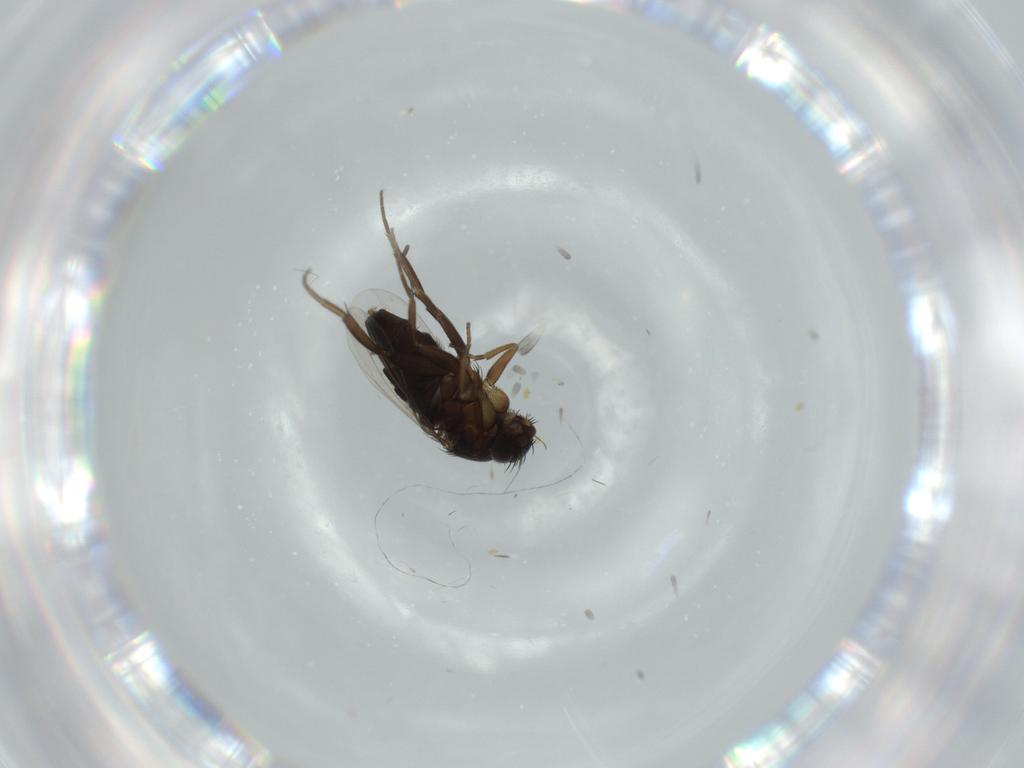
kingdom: Animalia
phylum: Arthropoda
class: Insecta
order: Diptera
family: Phoridae
